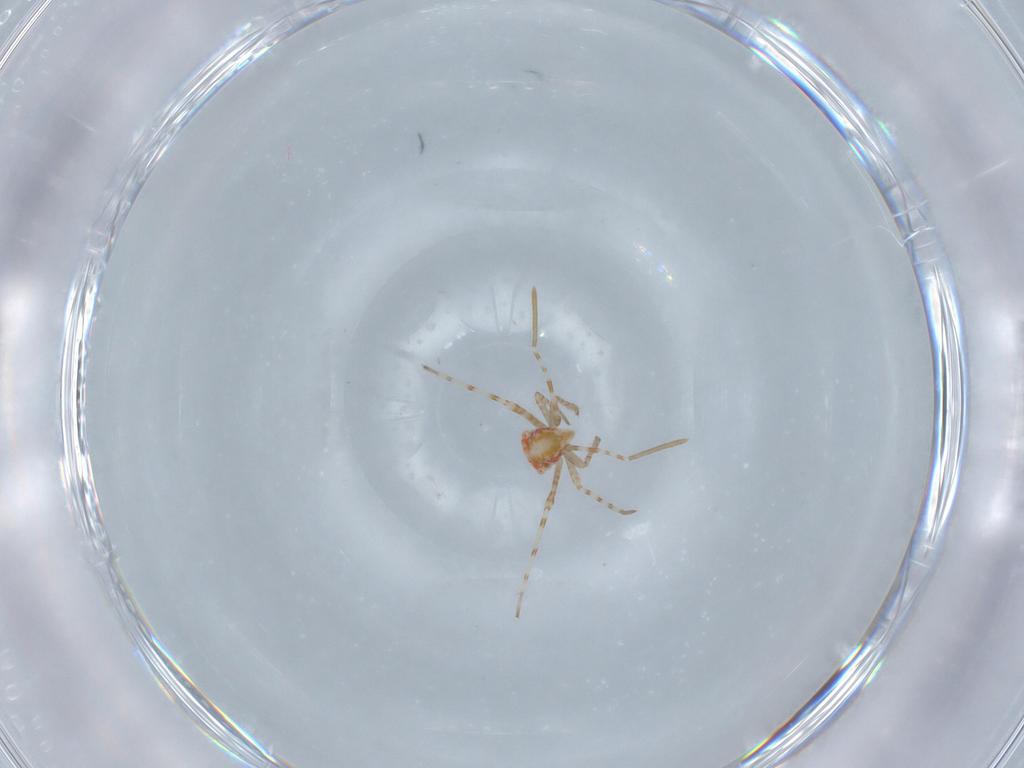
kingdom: Animalia
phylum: Arthropoda
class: Insecta
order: Hemiptera
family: Miridae
